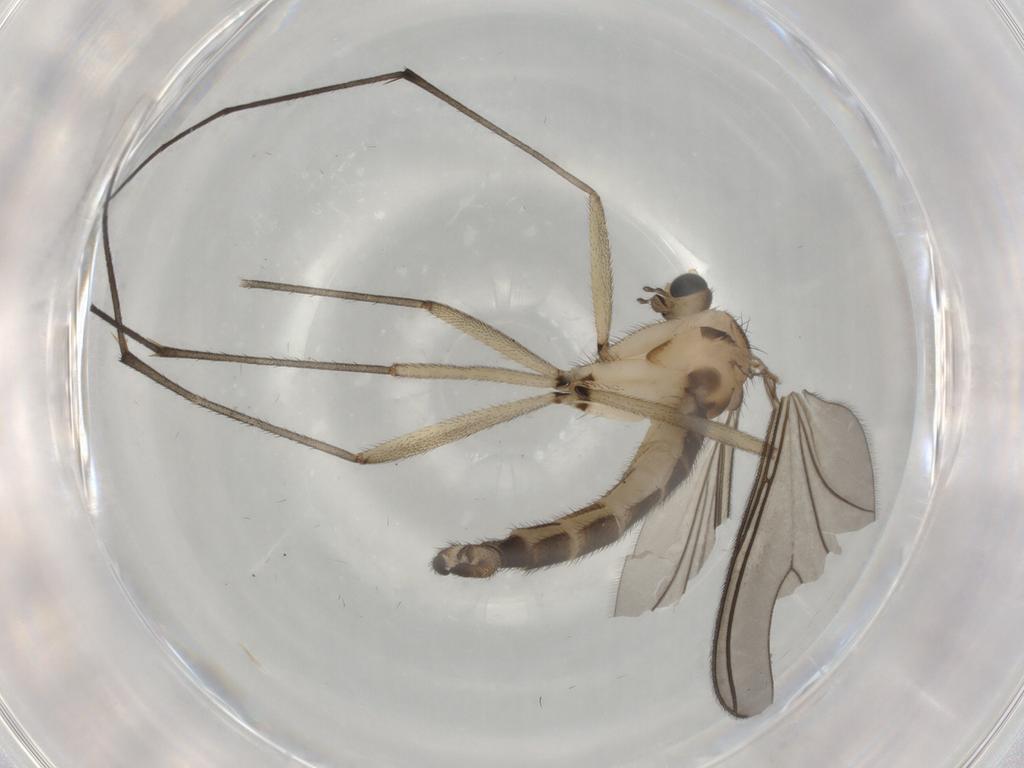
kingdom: Animalia
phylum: Arthropoda
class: Insecta
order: Diptera
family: Sciaridae
